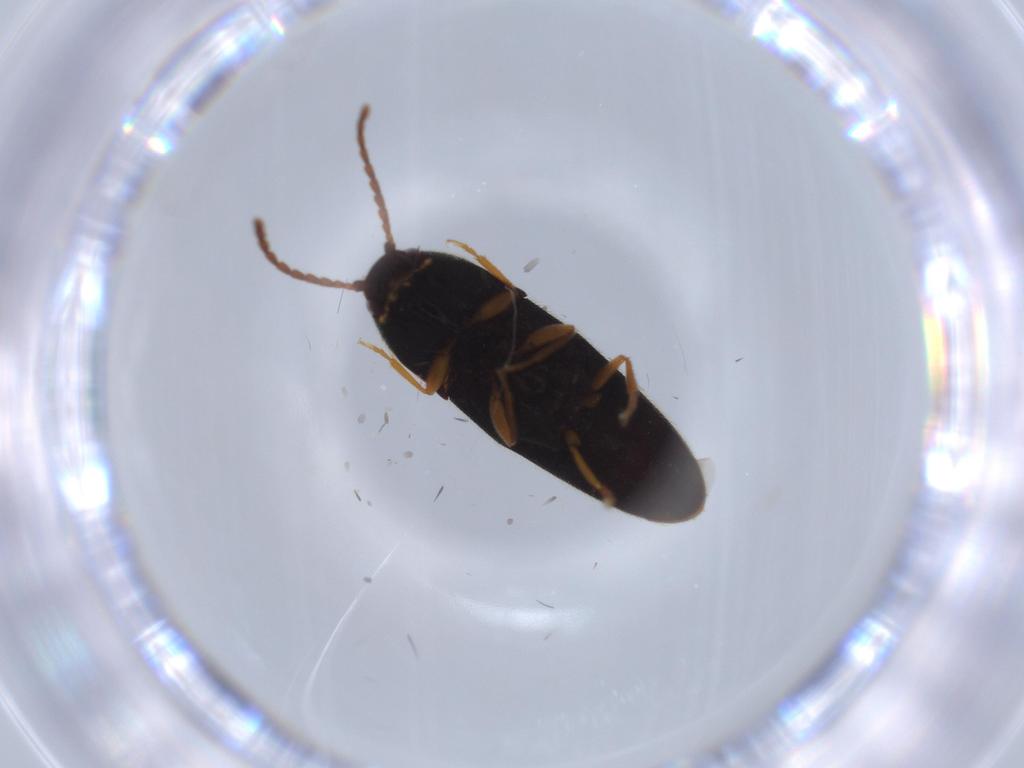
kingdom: Animalia
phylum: Arthropoda
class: Insecta
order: Coleoptera
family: Elateridae
